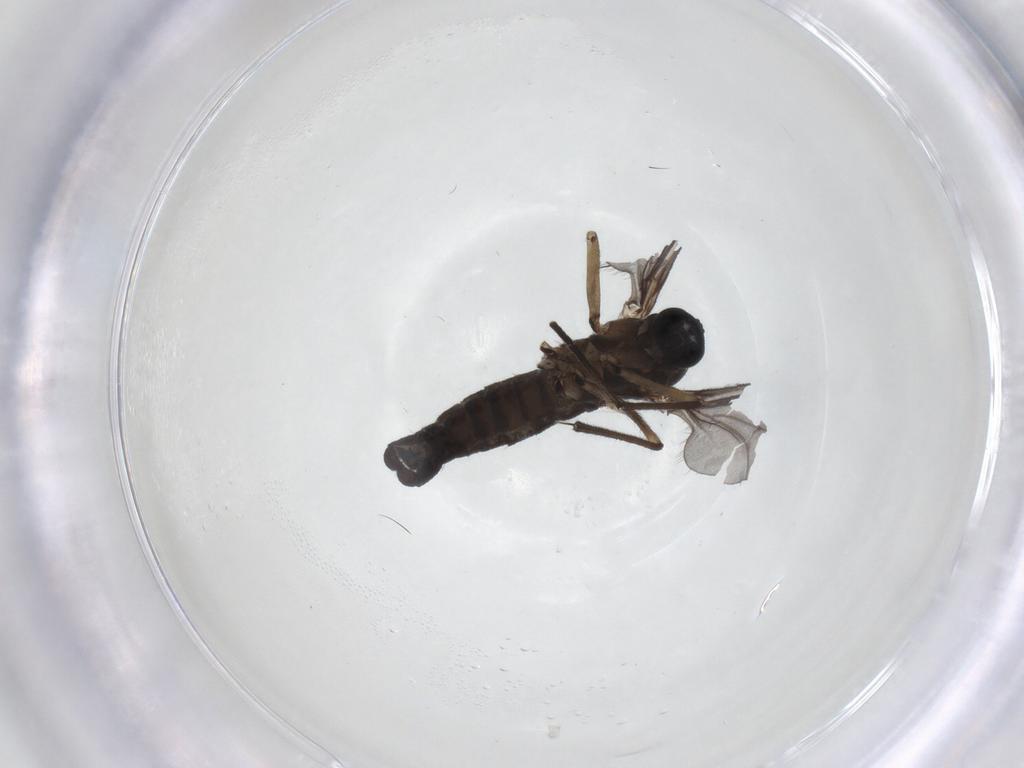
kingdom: Animalia
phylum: Arthropoda
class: Insecta
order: Diptera
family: Sciaridae
